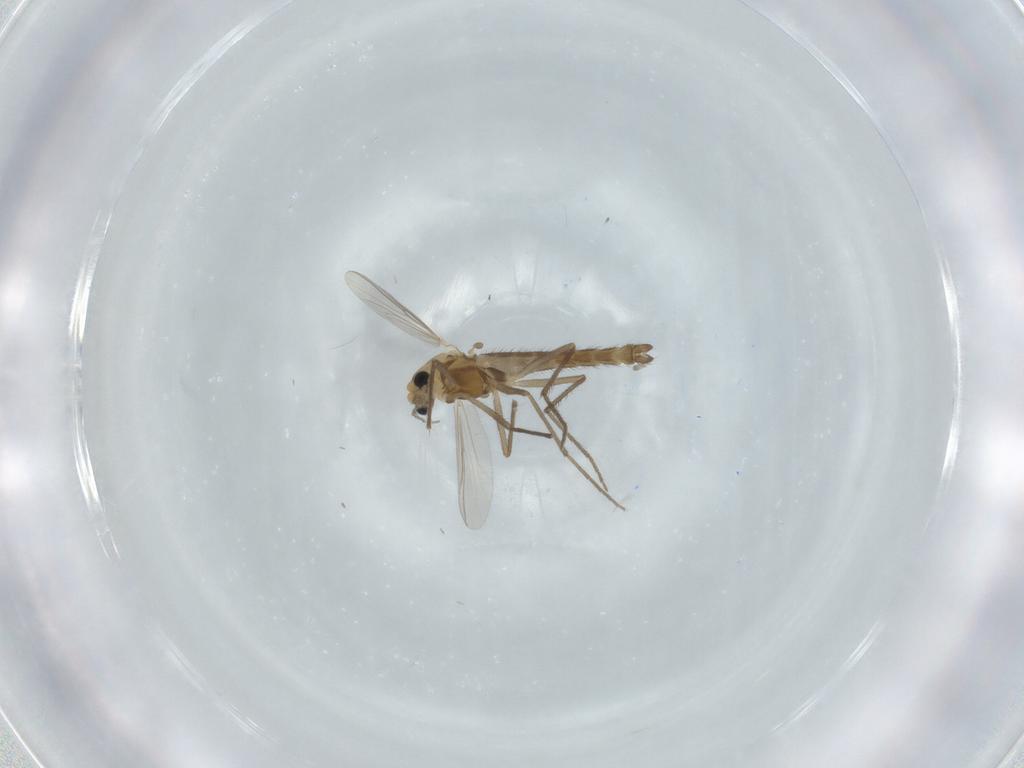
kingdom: Animalia
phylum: Arthropoda
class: Insecta
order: Diptera
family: Chironomidae
